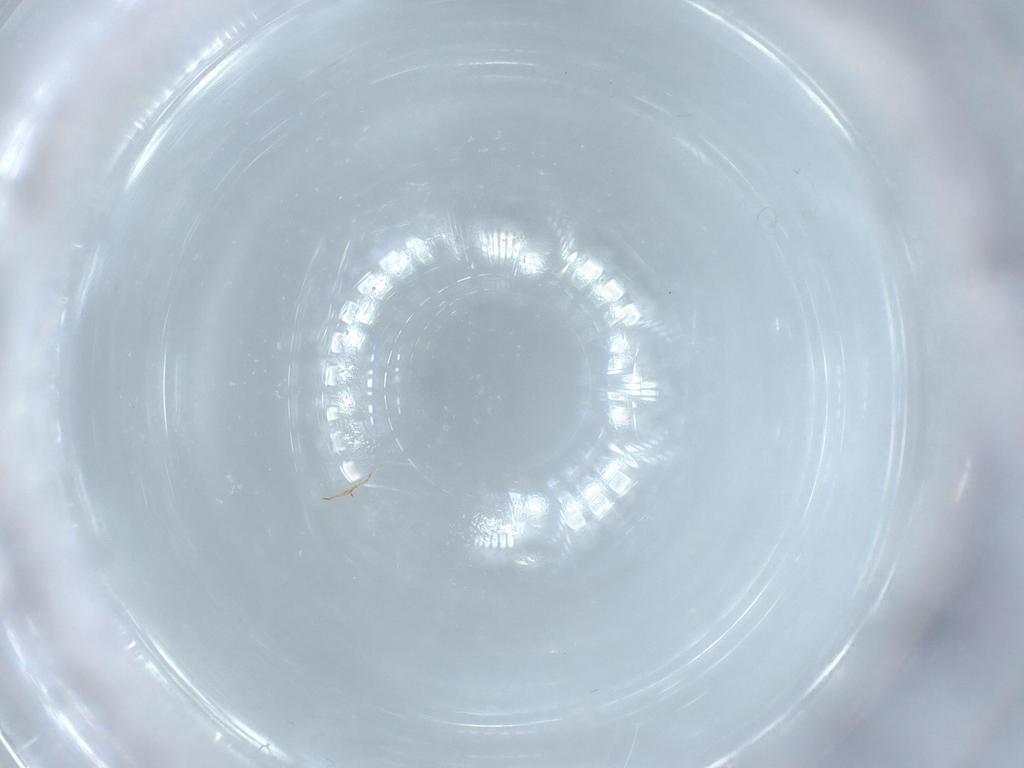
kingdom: Animalia
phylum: Arthropoda
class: Insecta
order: Diptera
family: Cecidomyiidae
